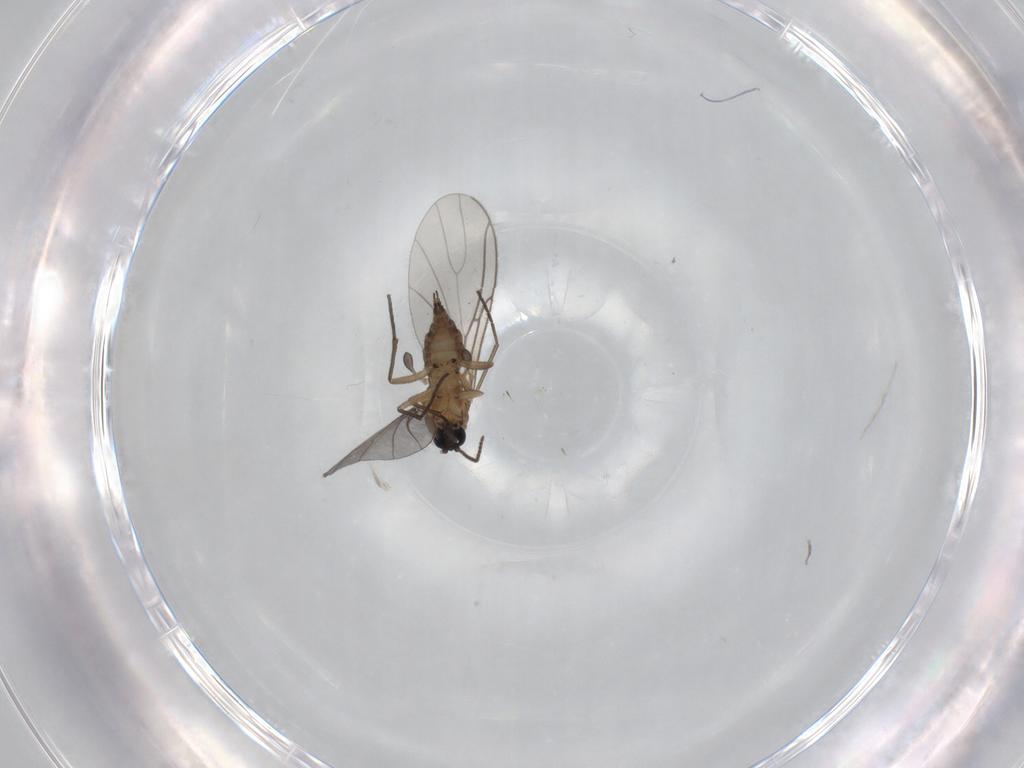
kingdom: Animalia
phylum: Arthropoda
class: Insecta
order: Diptera
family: Sciaridae
